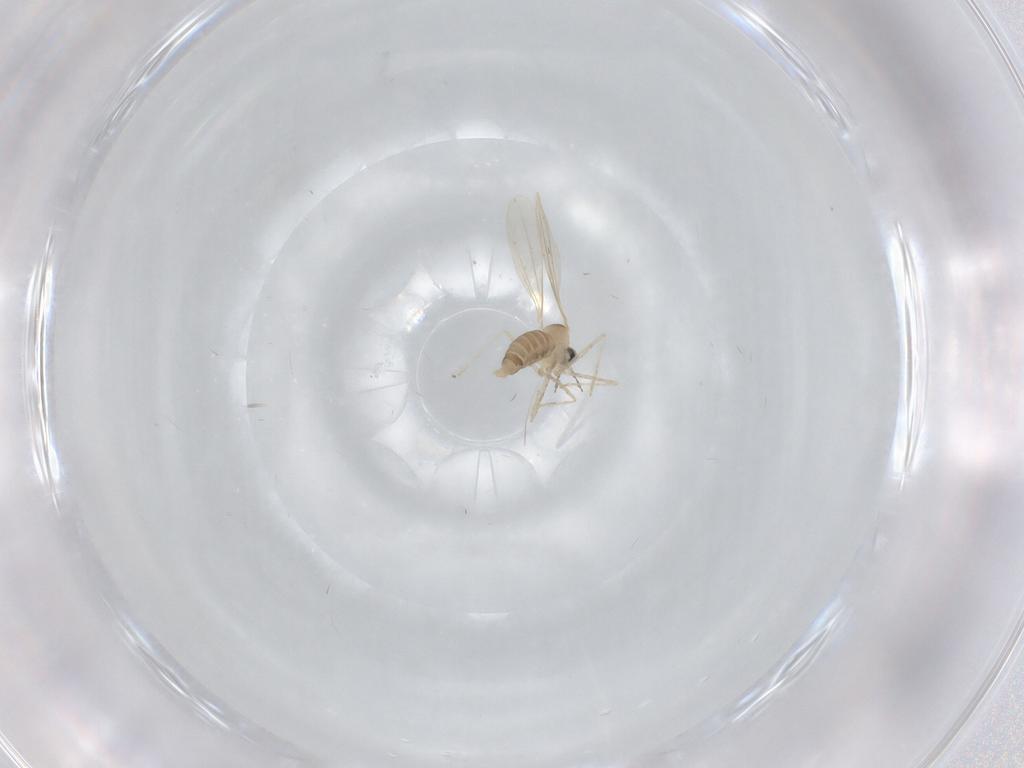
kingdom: Animalia
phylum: Arthropoda
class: Insecta
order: Diptera
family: Cecidomyiidae
